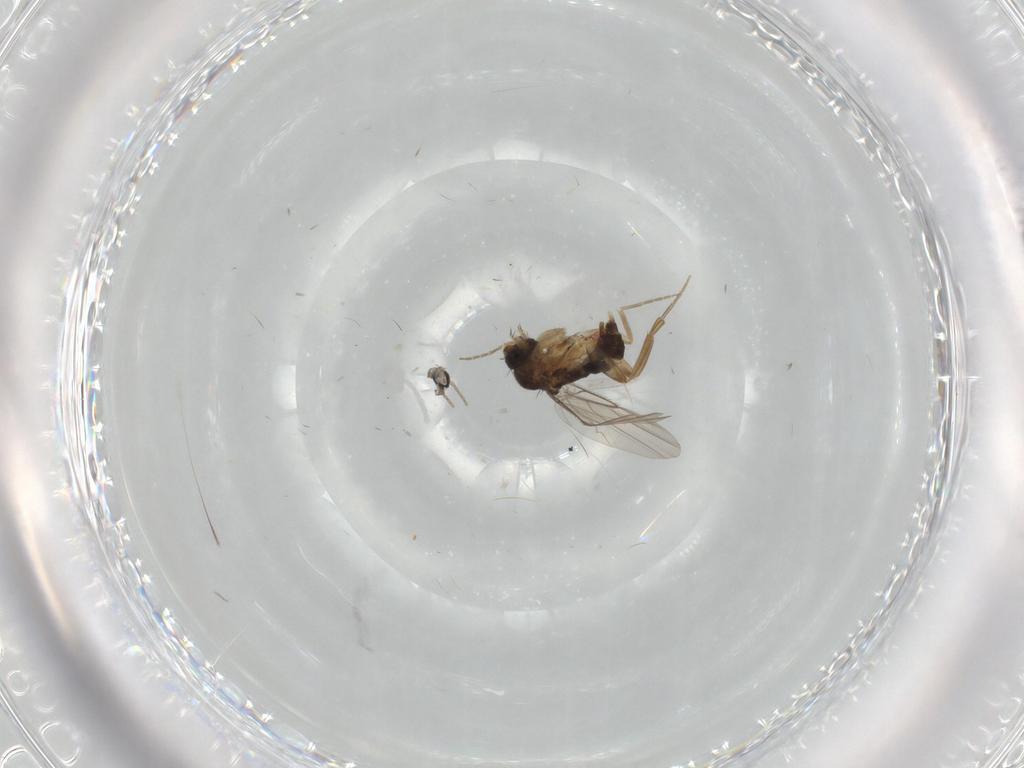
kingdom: Animalia
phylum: Arthropoda
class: Insecta
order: Diptera
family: Phoridae
